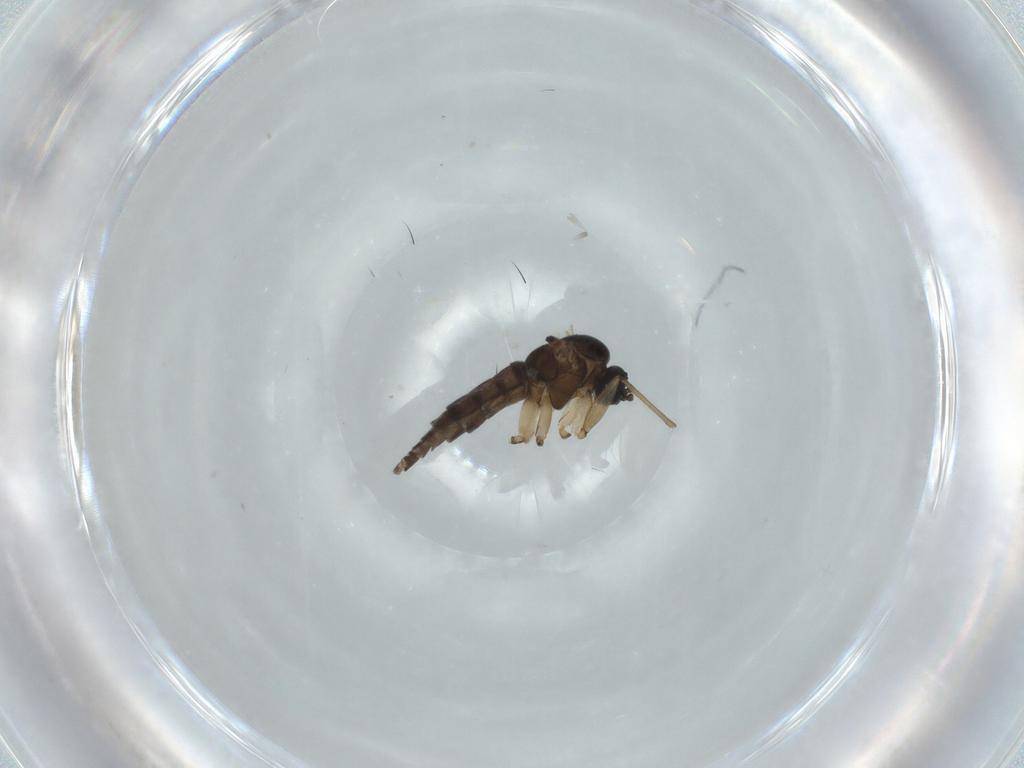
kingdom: Animalia
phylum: Arthropoda
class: Insecta
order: Diptera
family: Sciaridae
